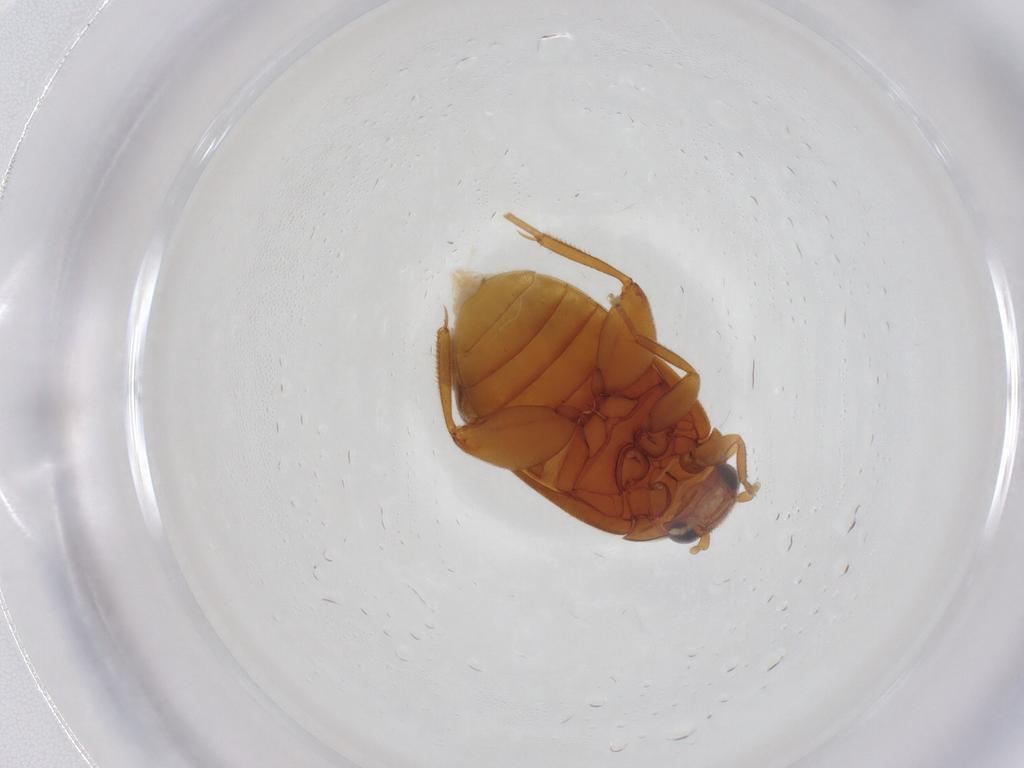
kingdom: Animalia
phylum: Arthropoda
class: Insecta
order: Coleoptera
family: Scirtidae
